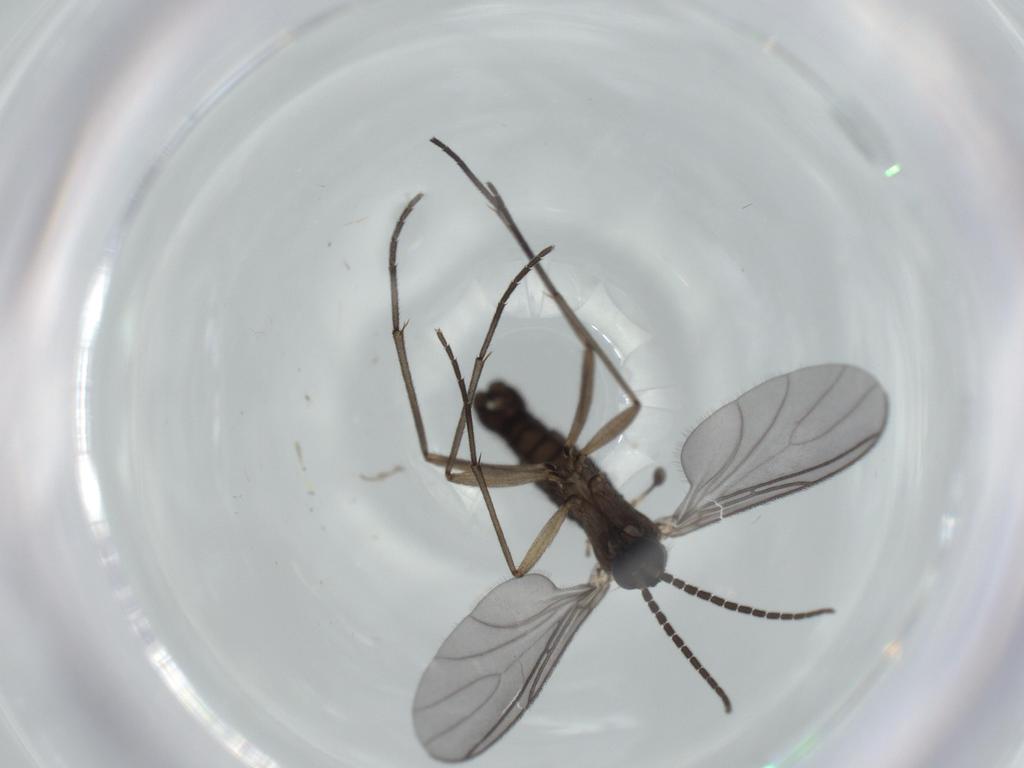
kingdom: Animalia
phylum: Arthropoda
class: Insecta
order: Diptera
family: Sciaridae
